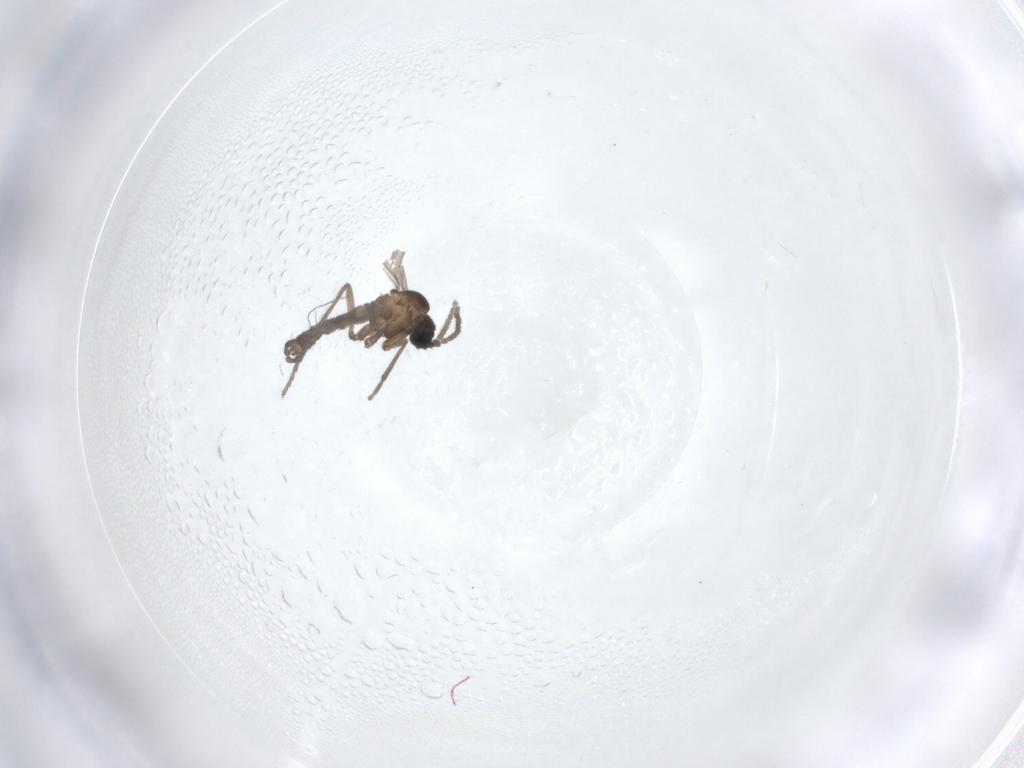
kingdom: Animalia
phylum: Arthropoda
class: Insecta
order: Diptera
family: Sciaridae
